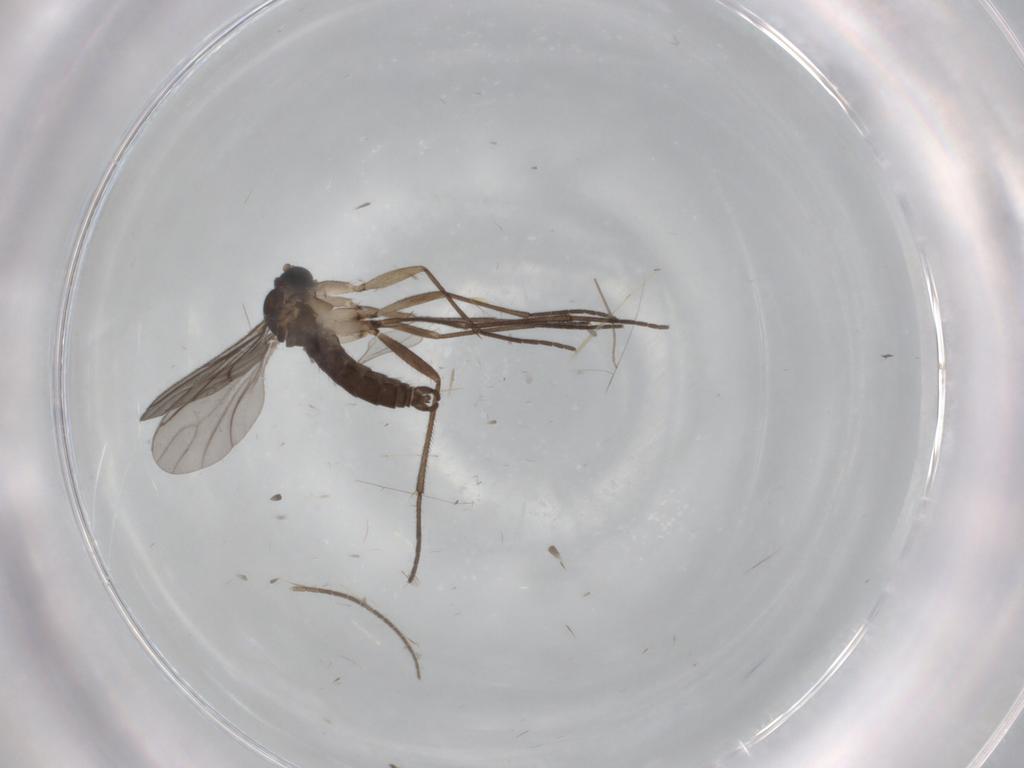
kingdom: Animalia
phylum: Arthropoda
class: Insecta
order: Diptera
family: Sciaridae
